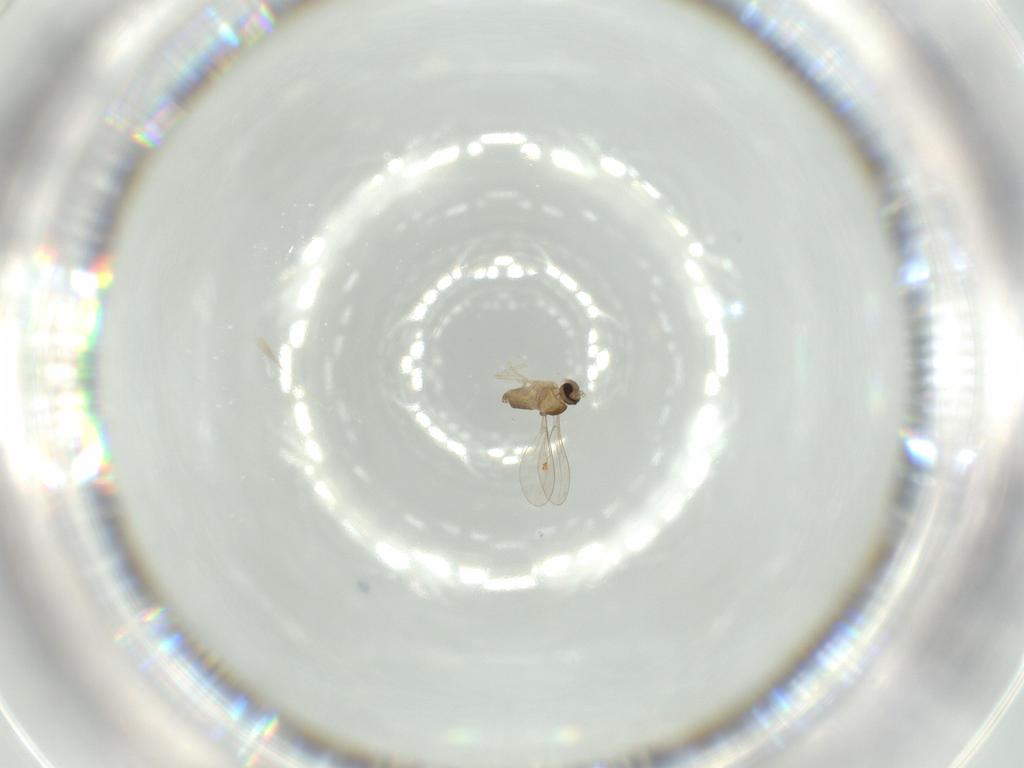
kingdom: Animalia
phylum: Arthropoda
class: Insecta
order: Diptera
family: Cecidomyiidae
